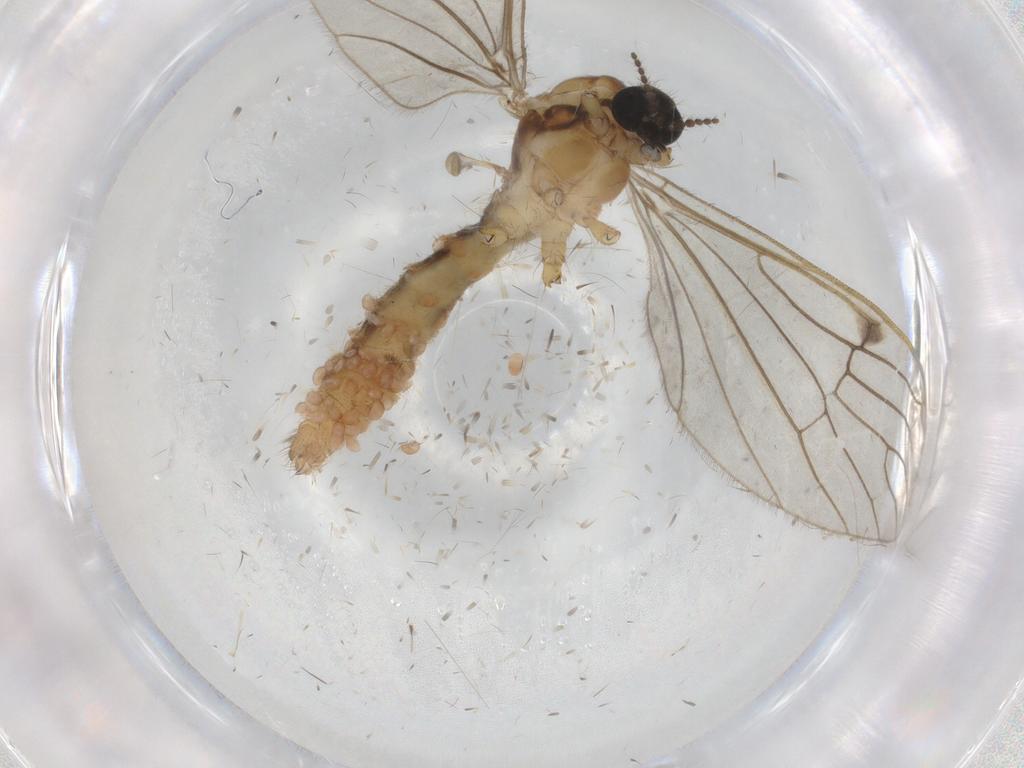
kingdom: Animalia
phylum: Arthropoda
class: Insecta
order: Diptera
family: Limoniidae
